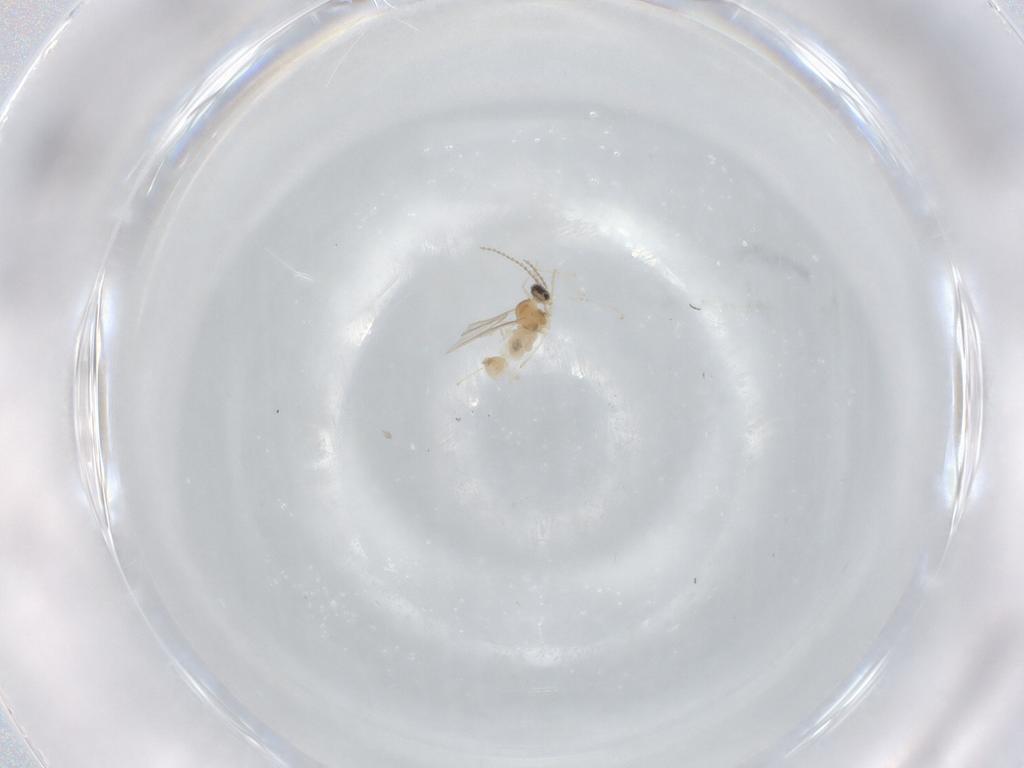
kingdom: Animalia
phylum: Arthropoda
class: Insecta
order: Diptera
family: Cecidomyiidae
